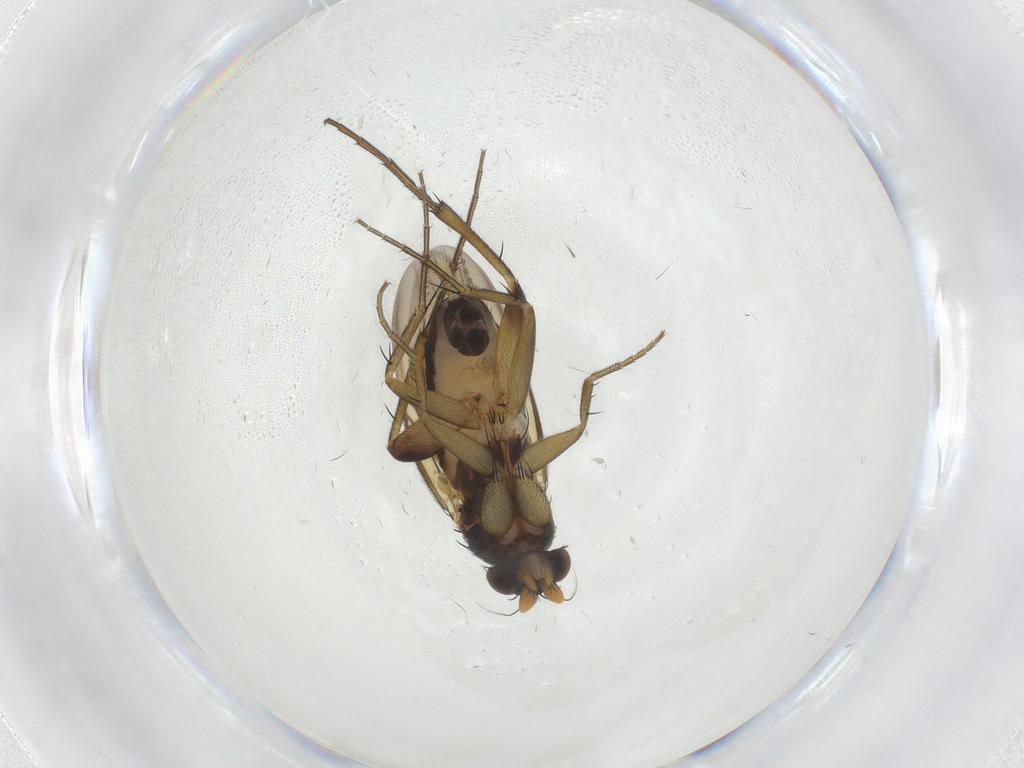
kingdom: Animalia
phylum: Arthropoda
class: Insecta
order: Diptera
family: Phoridae
